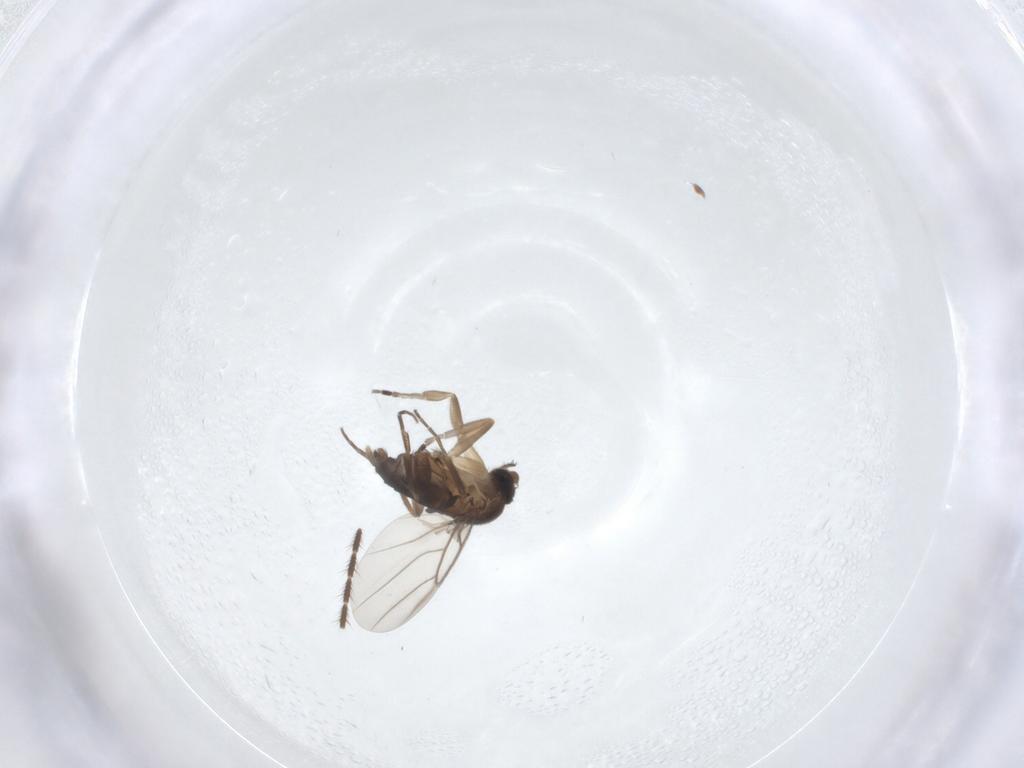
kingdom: Animalia
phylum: Arthropoda
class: Insecta
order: Diptera
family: Phoridae
